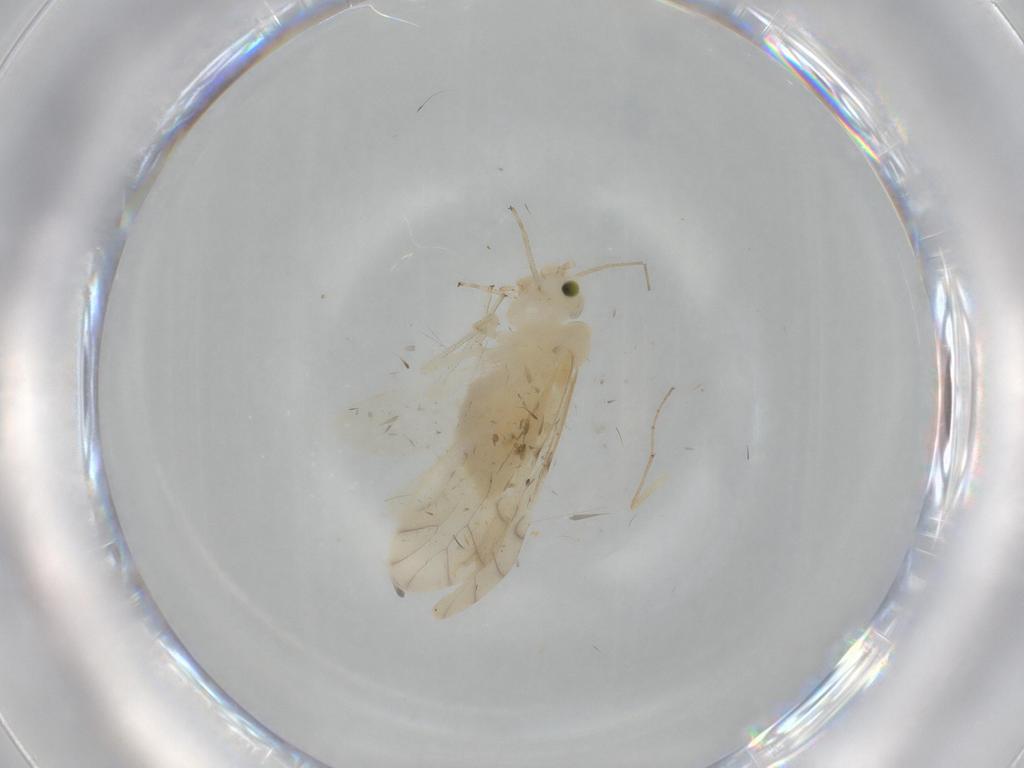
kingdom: Animalia
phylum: Arthropoda
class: Insecta
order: Psocodea
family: Caeciliusidae
